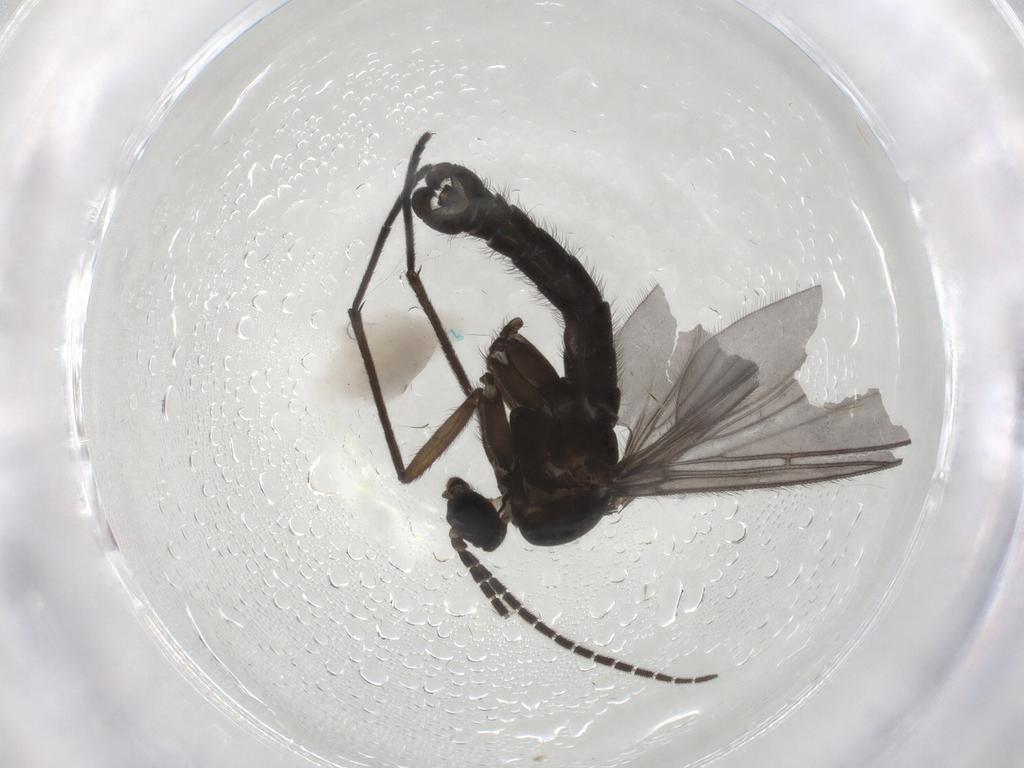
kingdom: Animalia
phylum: Arthropoda
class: Insecta
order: Diptera
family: Sciaridae
